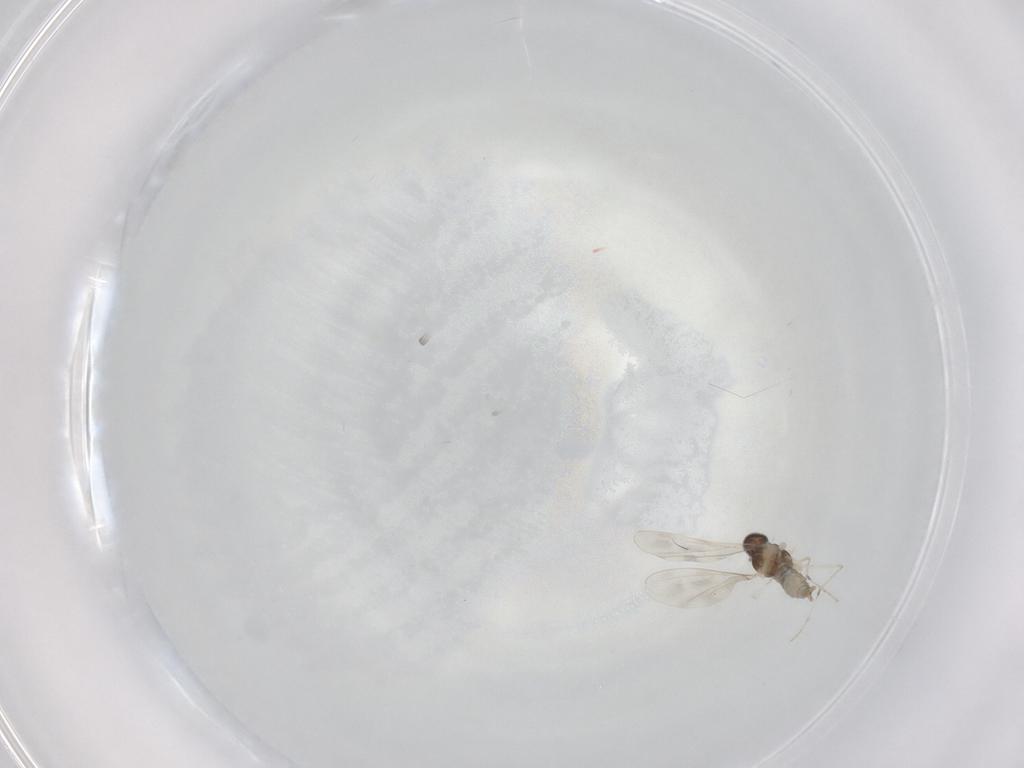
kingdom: Animalia
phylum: Arthropoda
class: Insecta
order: Diptera
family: Chironomidae
